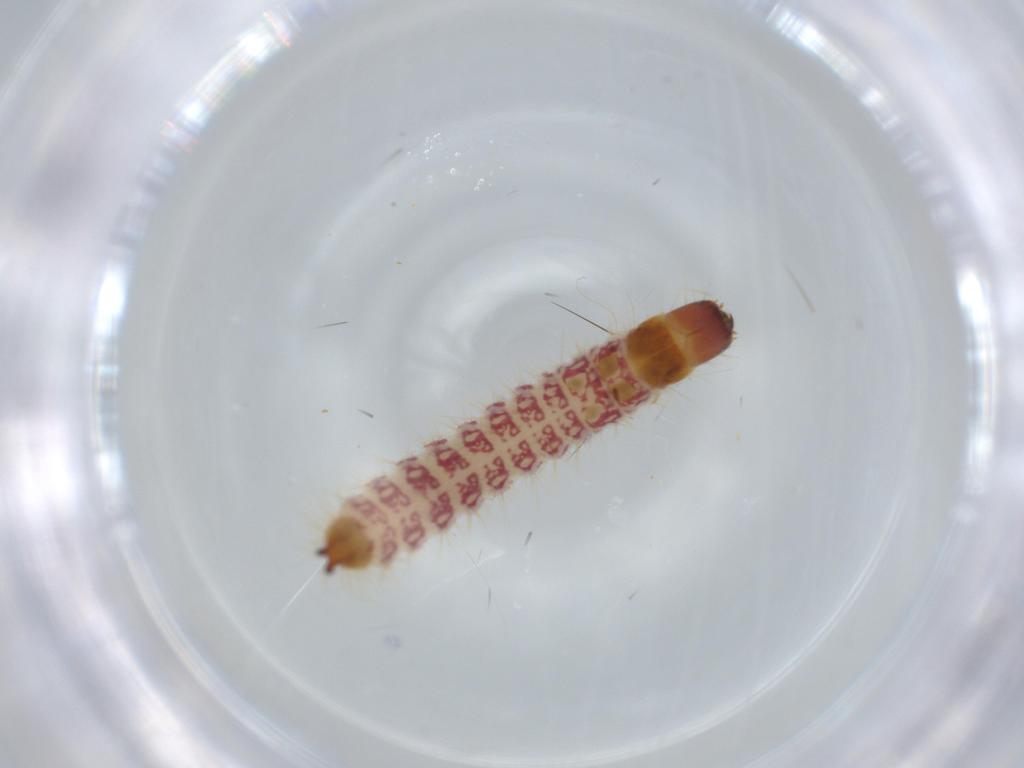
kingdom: Animalia
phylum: Arthropoda
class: Insecta
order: Coleoptera
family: Cleridae
